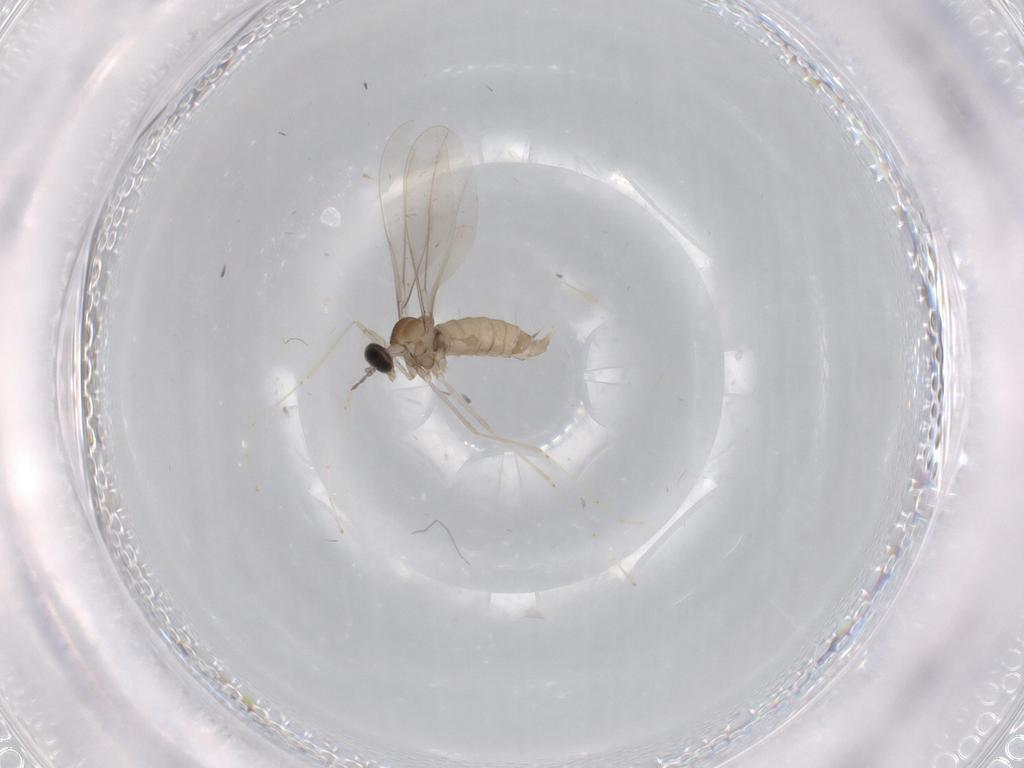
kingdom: Animalia
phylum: Arthropoda
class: Insecta
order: Diptera
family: Cecidomyiidae
